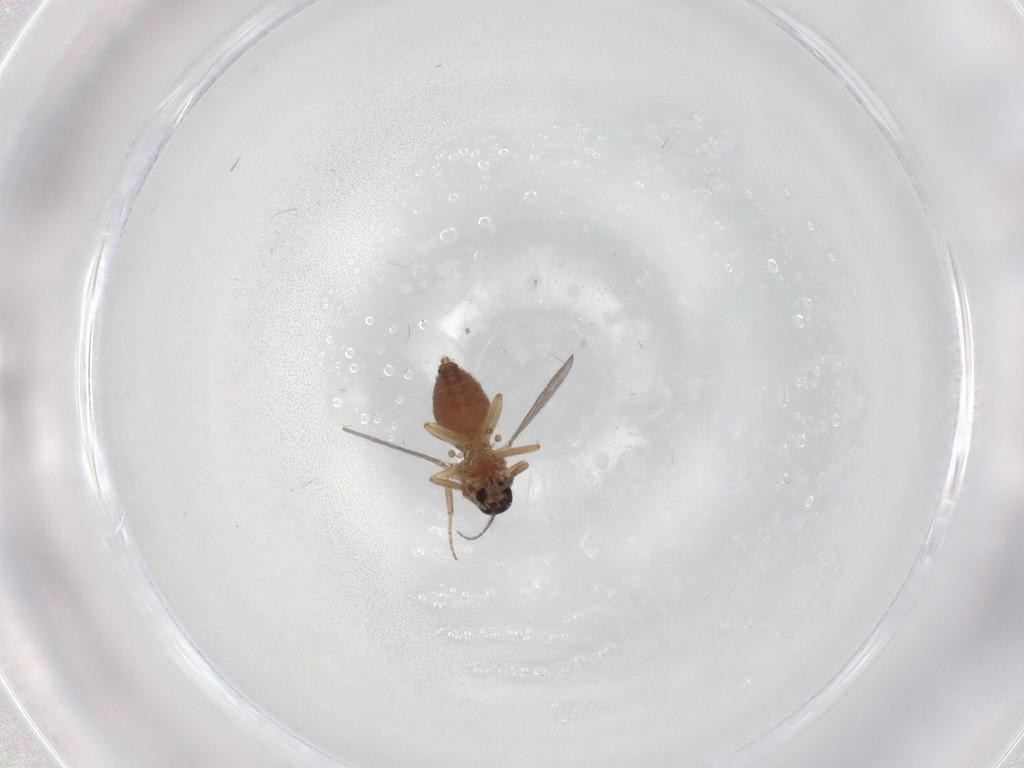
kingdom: Animalia
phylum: Arthropoda
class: Insecta
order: Diptera
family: Ceratopogonidae
